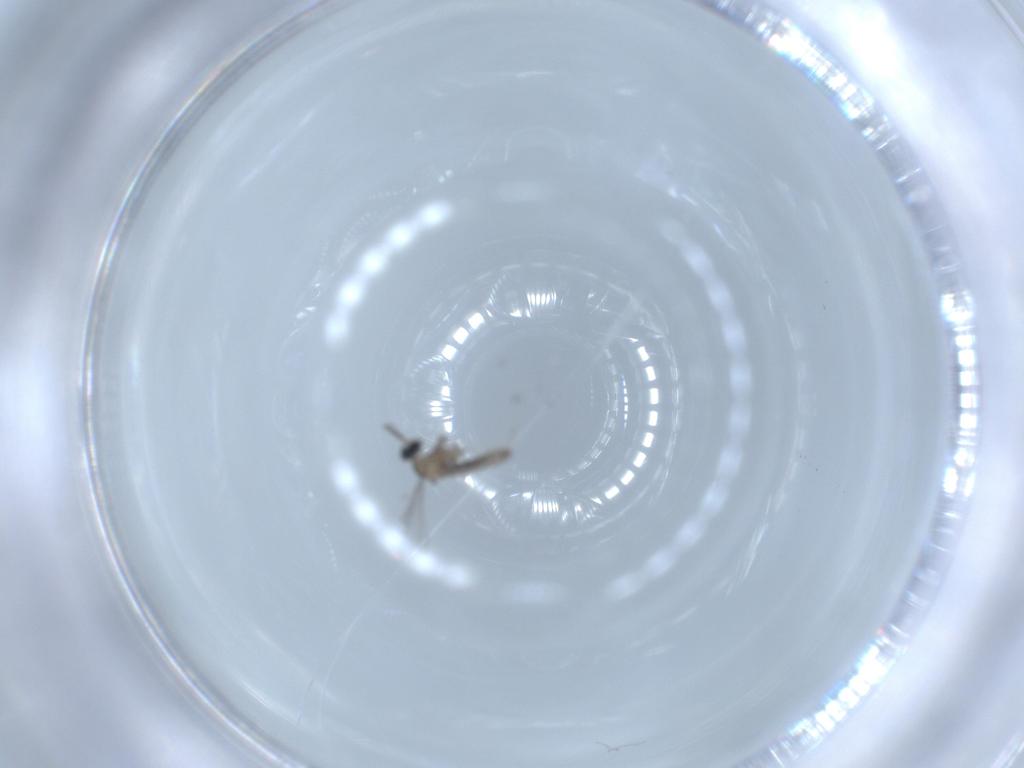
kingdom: Animalia
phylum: Arthropoda
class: Insecta
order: Diptera
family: Cecidomyiidae
